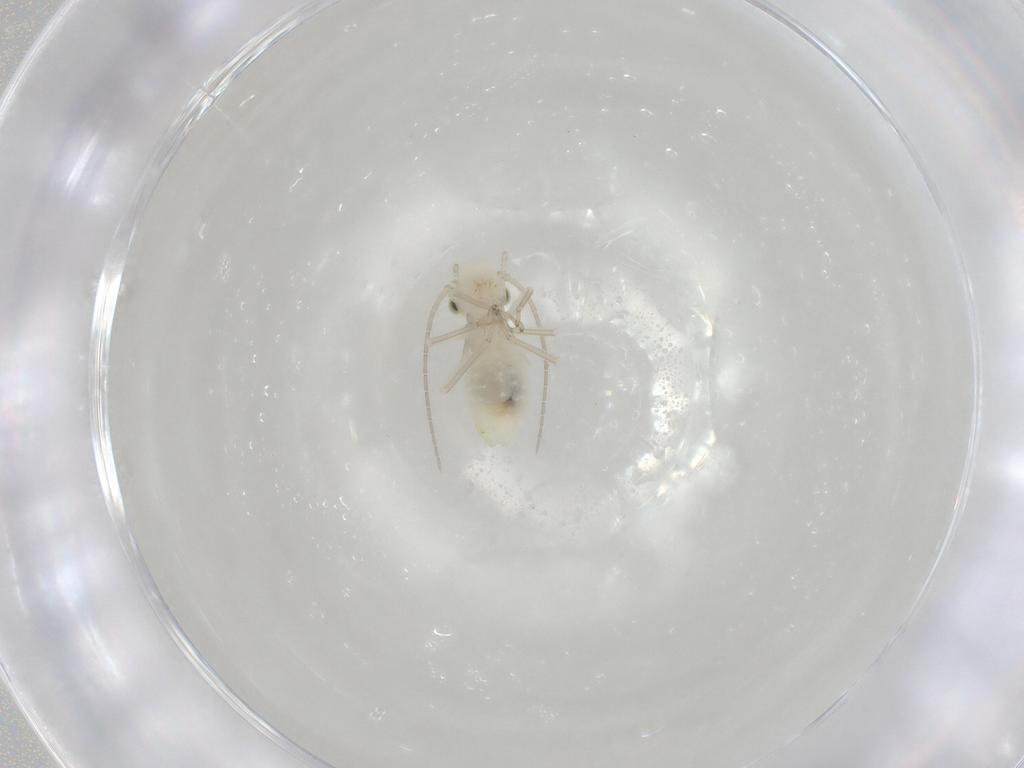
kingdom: Animalia
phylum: Arthropoda
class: Insecta
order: Psocodea
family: Caeciliusidae
